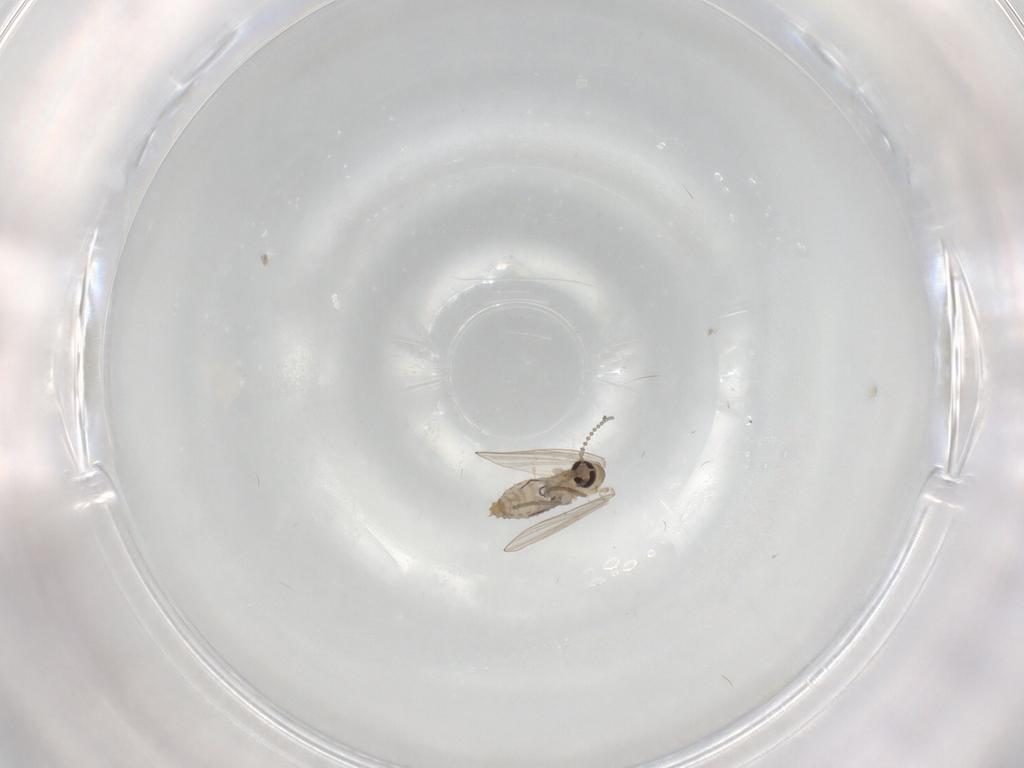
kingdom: Animalia
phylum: Arthropoda
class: Insecta
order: Diptera
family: Psychodidae
